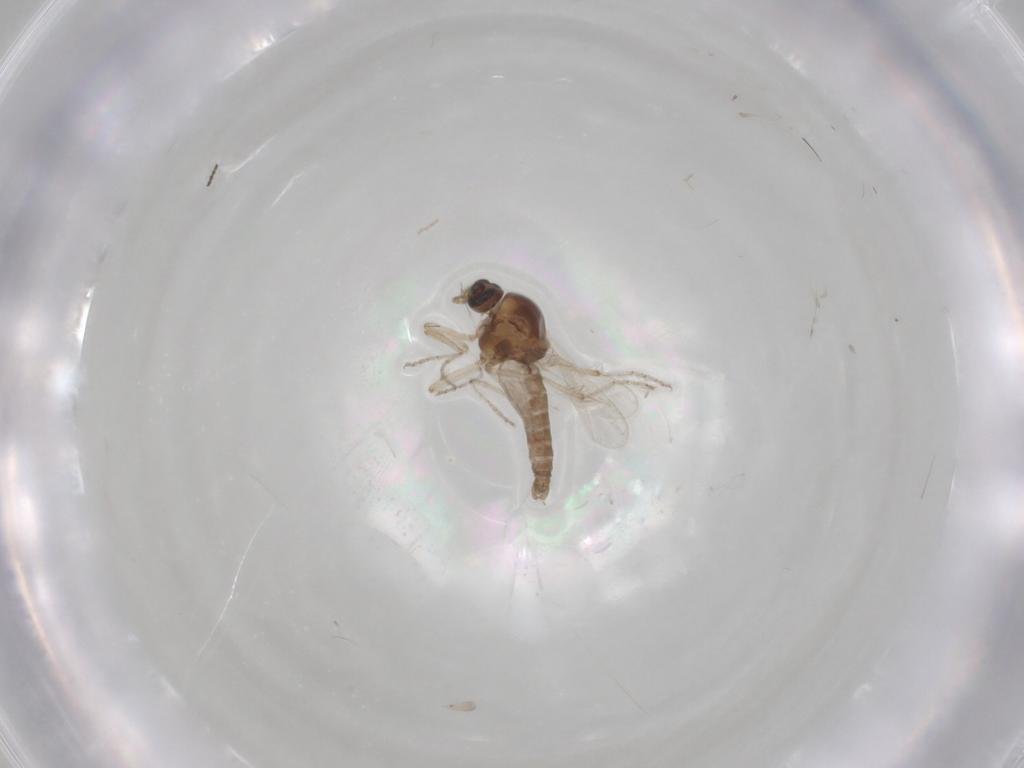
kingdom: Animalia
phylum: Arthropoda
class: Insecta
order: Diptera
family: Ceratopogonidae
